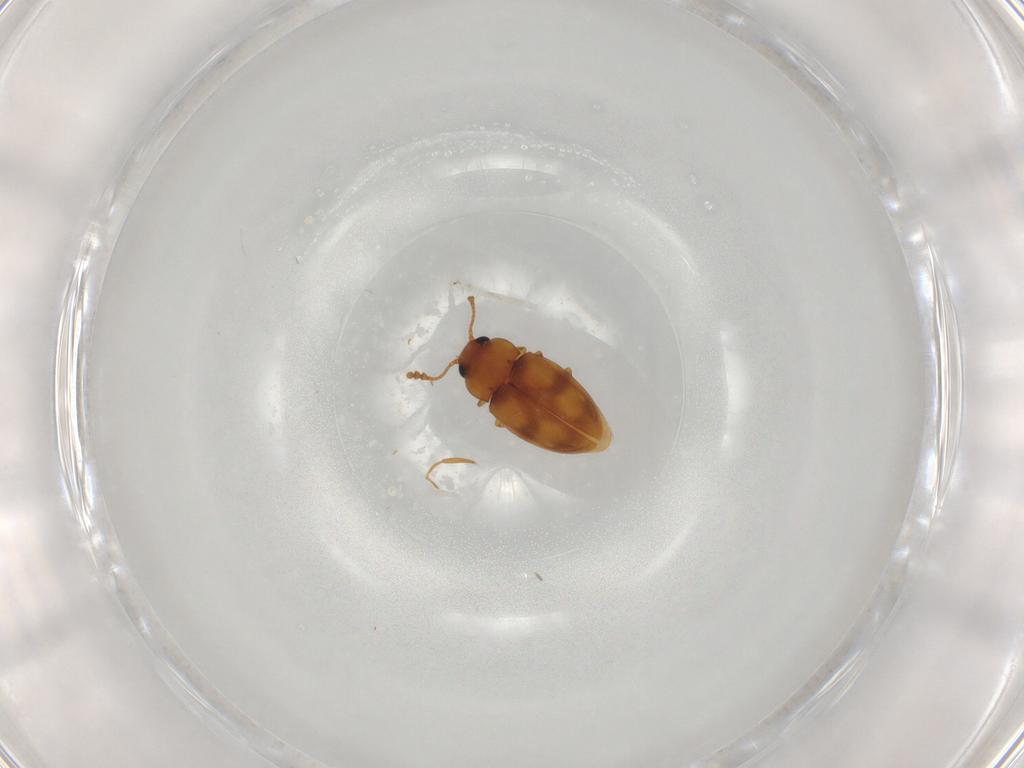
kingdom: Animalia
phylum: Arthropoda
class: Insecta
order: Coleoptera
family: Erotylidae
